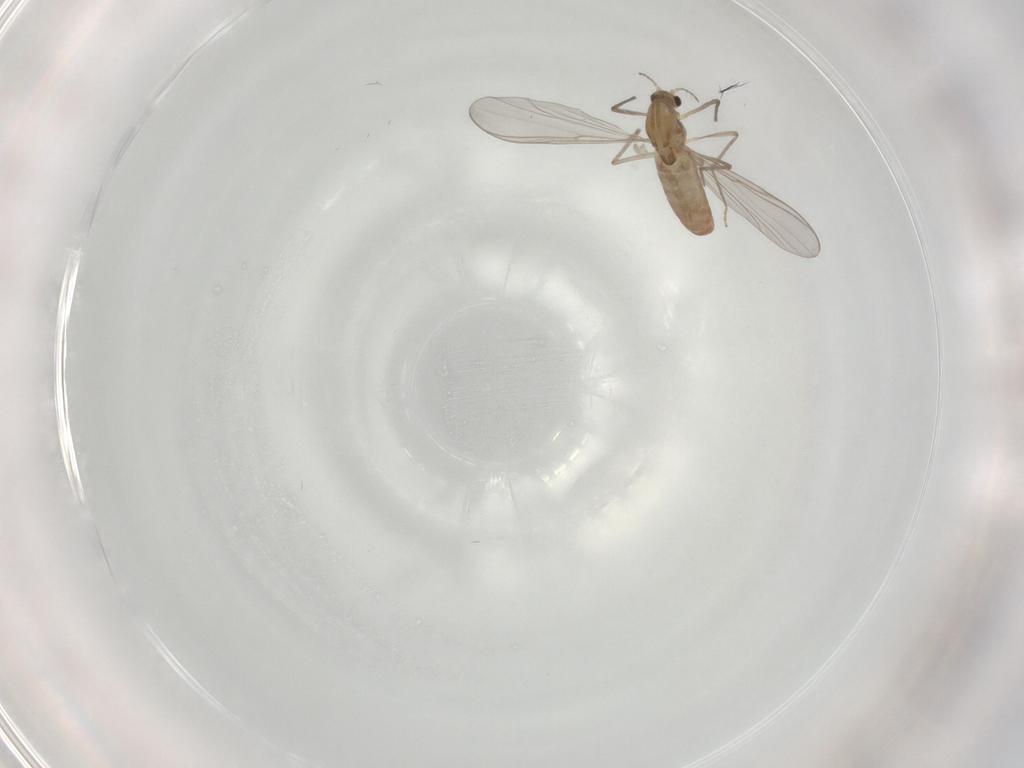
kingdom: Animalia
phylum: Arthropoda
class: Insecta
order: Diptera
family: Chironomidae
